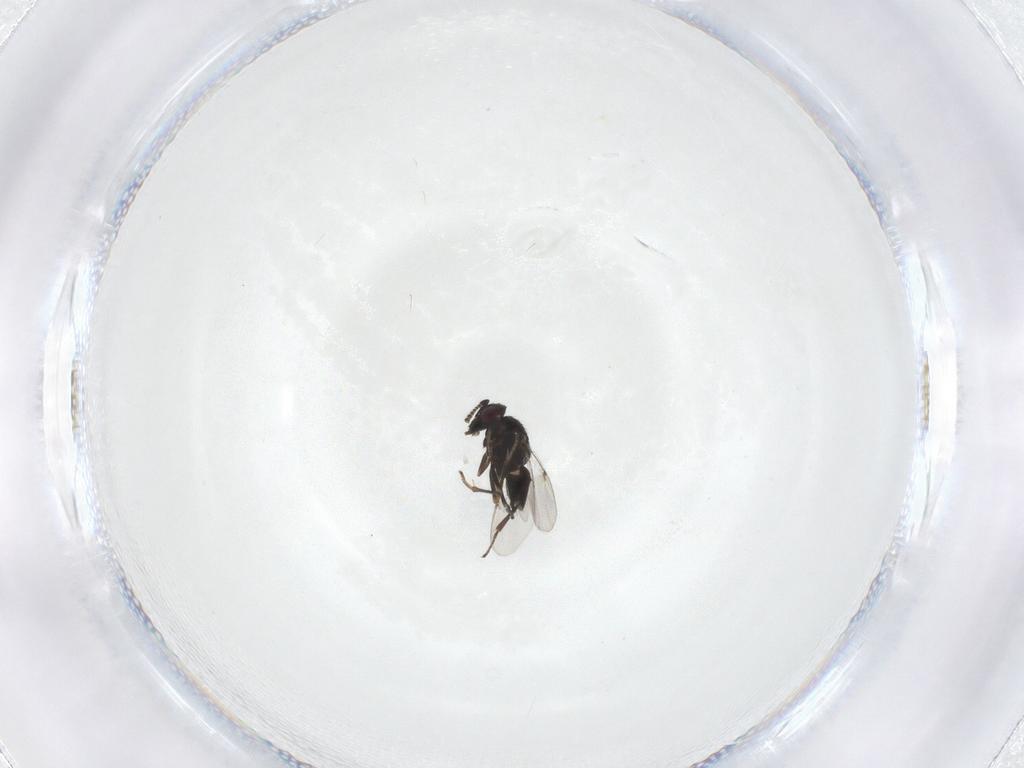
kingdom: Animalia
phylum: Arthropoda
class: Insecta
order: Hymenoptera
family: Encyrtidae
